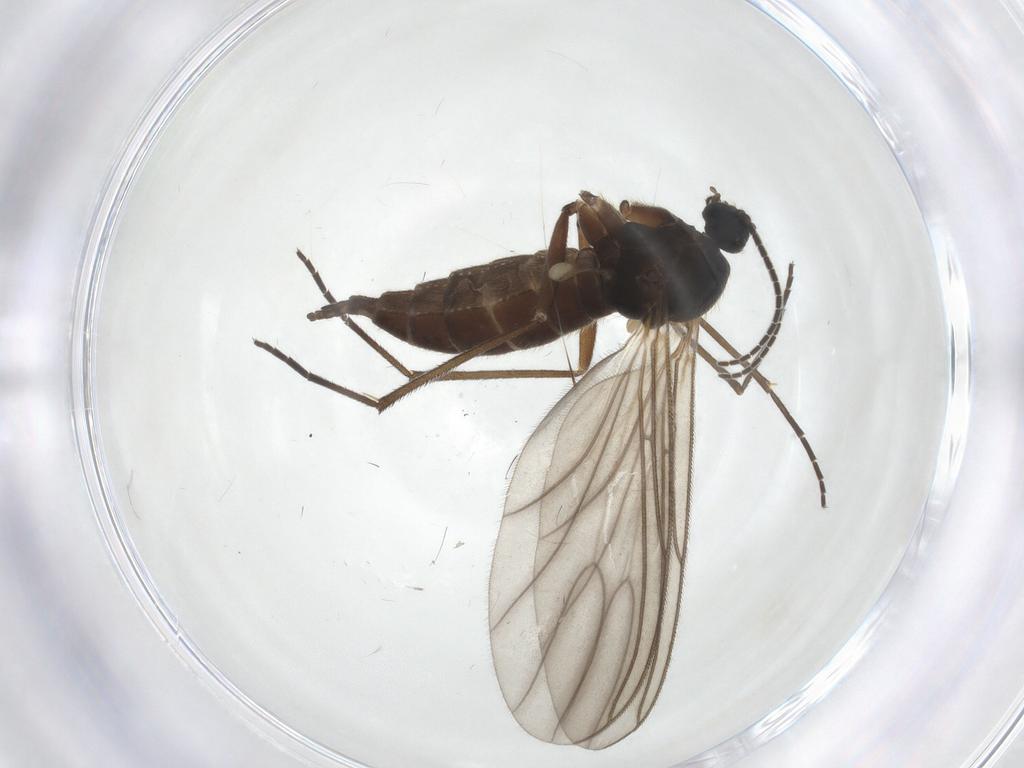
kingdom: Animalia
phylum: Arthropoda
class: Insecta
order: Diptera
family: Sciaridae
